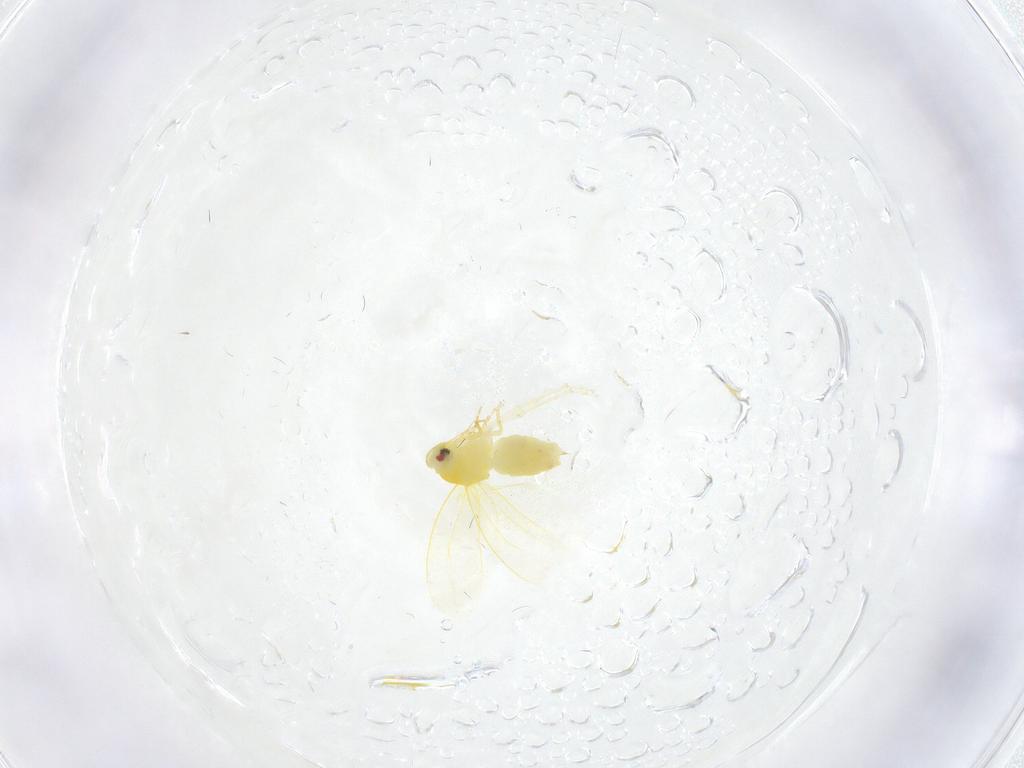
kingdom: Animalia
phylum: Arthropoda
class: Insecta
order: Hemiptera
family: Aleyrodidae
